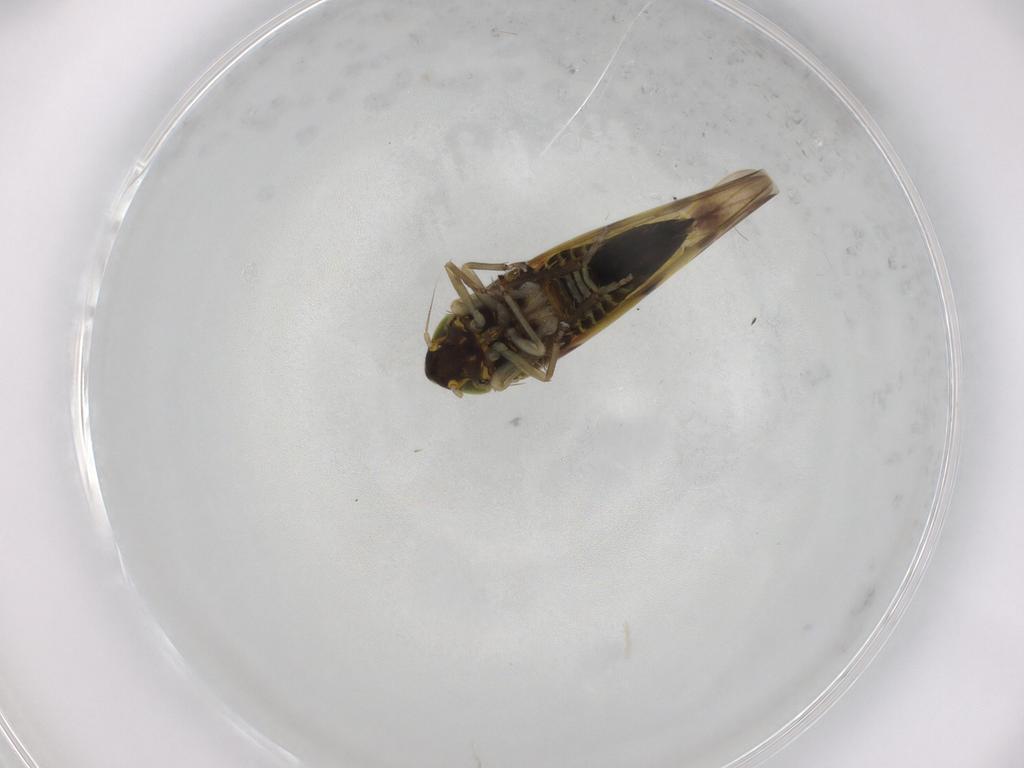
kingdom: Animalia
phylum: Arthropoda
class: Insecta
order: Hemiptera
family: Cicadellidae
